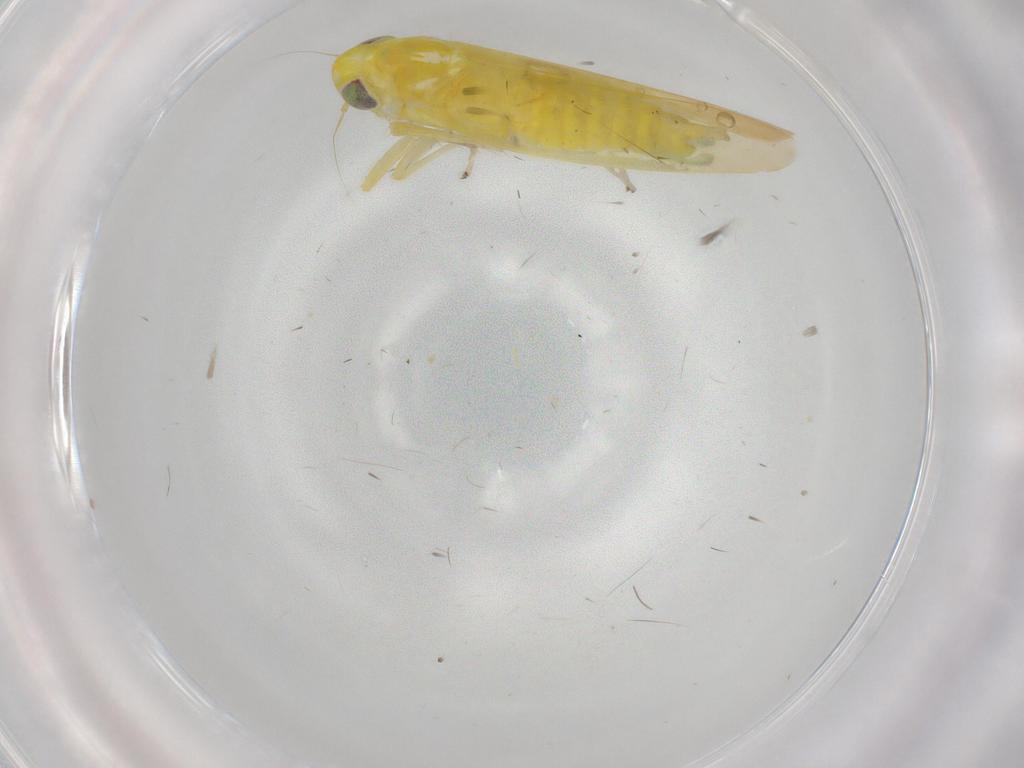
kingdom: Animalia
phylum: Arthropoda
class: Insecta
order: Hemiptera
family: Cicadellidae
